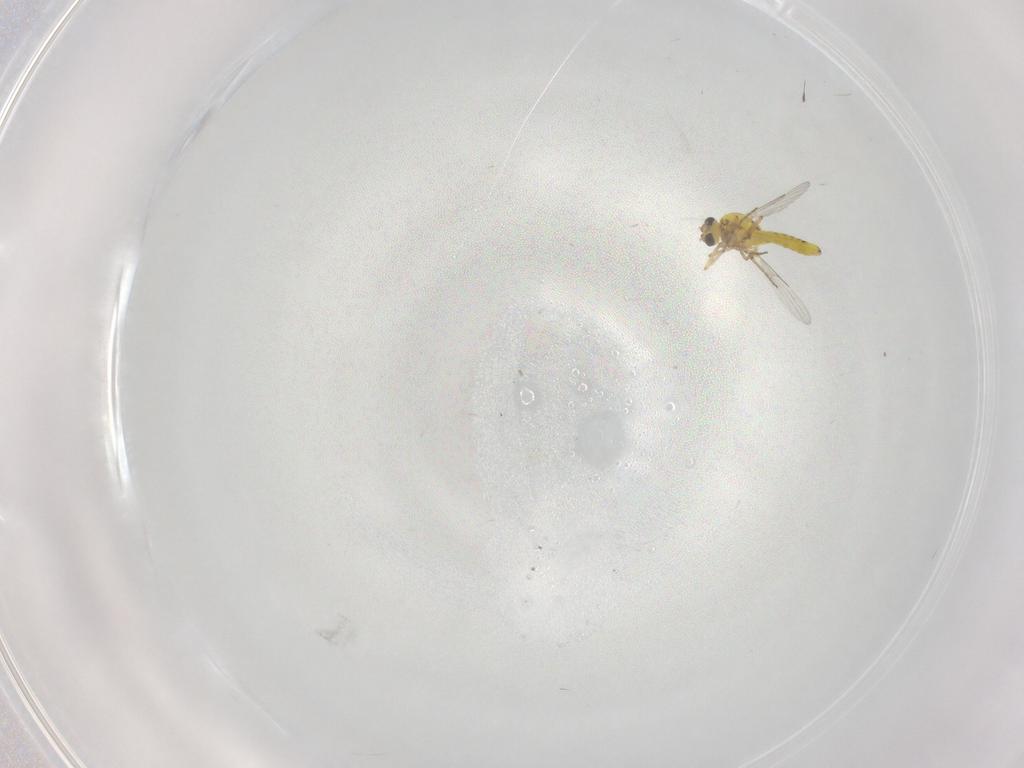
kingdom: Animalia
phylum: Arthropoda
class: Insecta
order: Diptera
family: Ceratopogonidae
